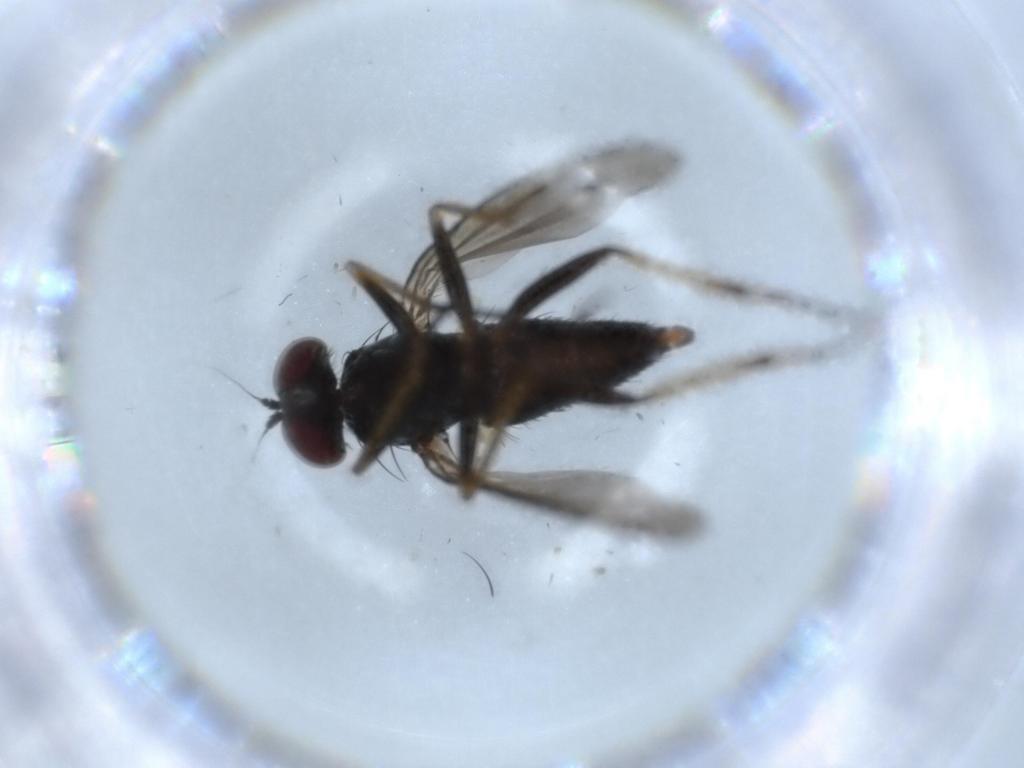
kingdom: Animalia
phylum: Arthropoda
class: Insecta
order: Diptera
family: Dolichopodidae
